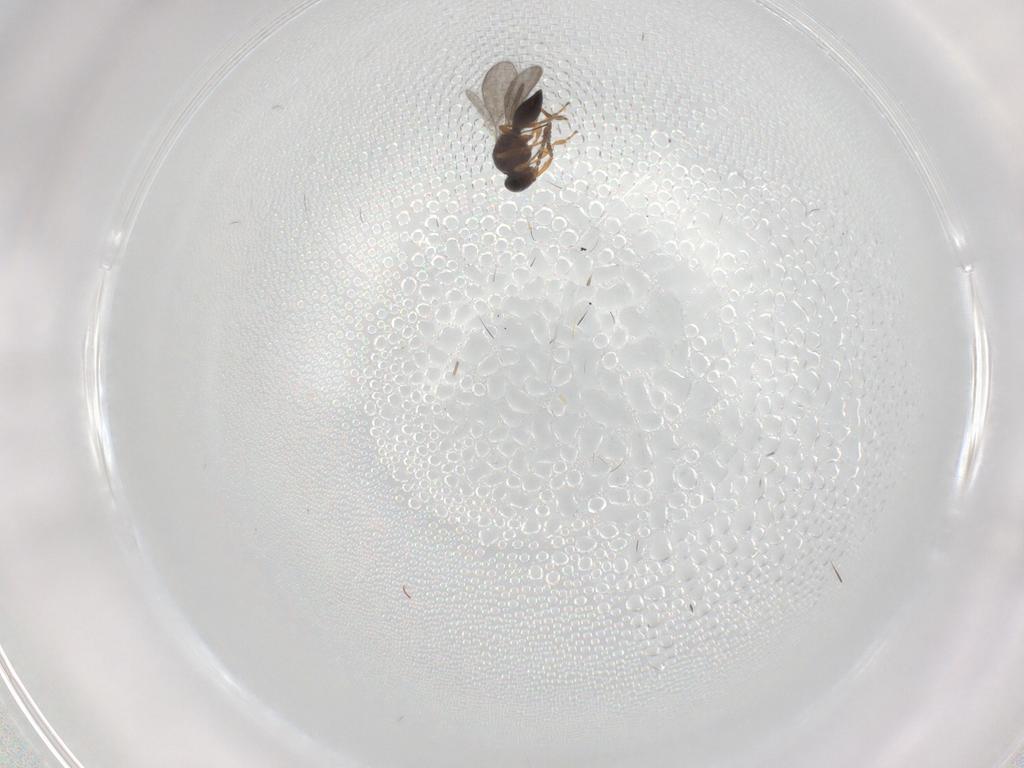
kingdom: Animalia
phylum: Arthropoda
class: Insecta
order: Hymenoptera
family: Platygastridae
